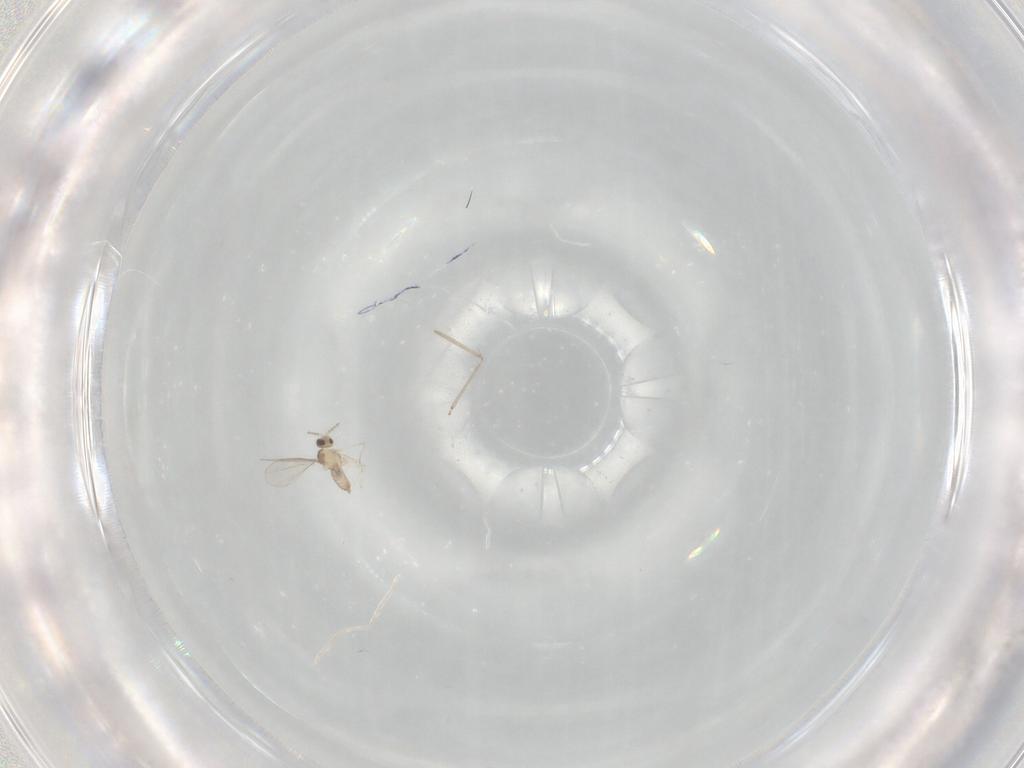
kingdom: Animalia
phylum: Arthropoda
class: Insecta
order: Diptera
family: Cecidomyiidae
